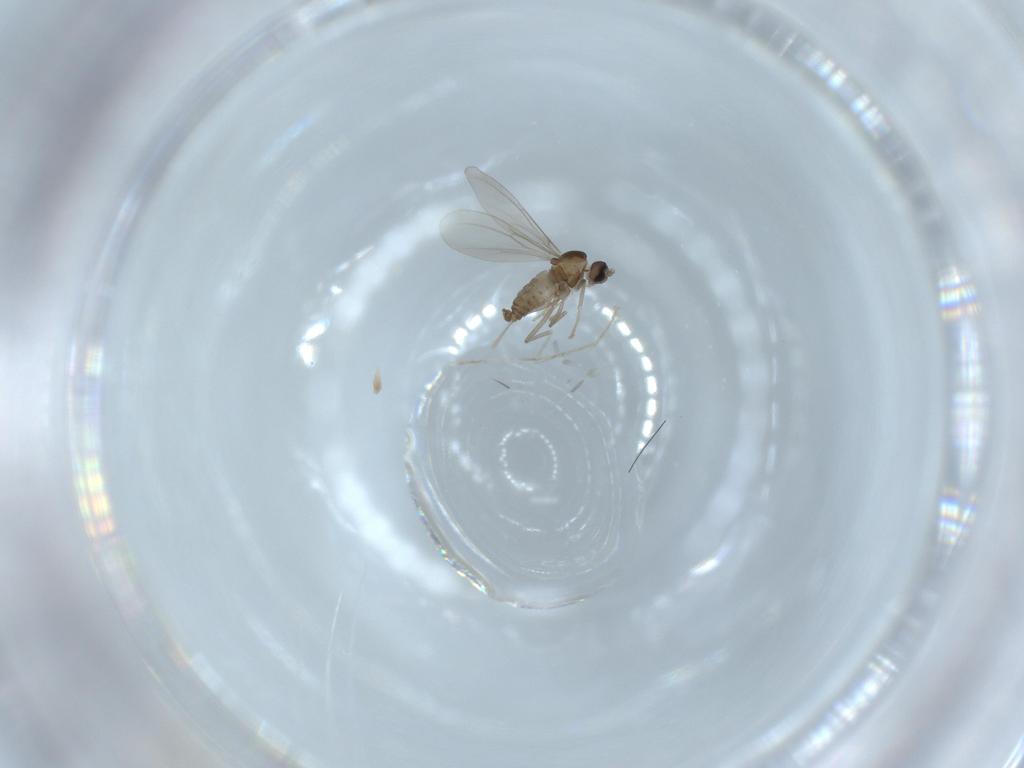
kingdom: Animalia
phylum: Arthropoda
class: Insecta
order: Diptera
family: Cecidomyiidae
